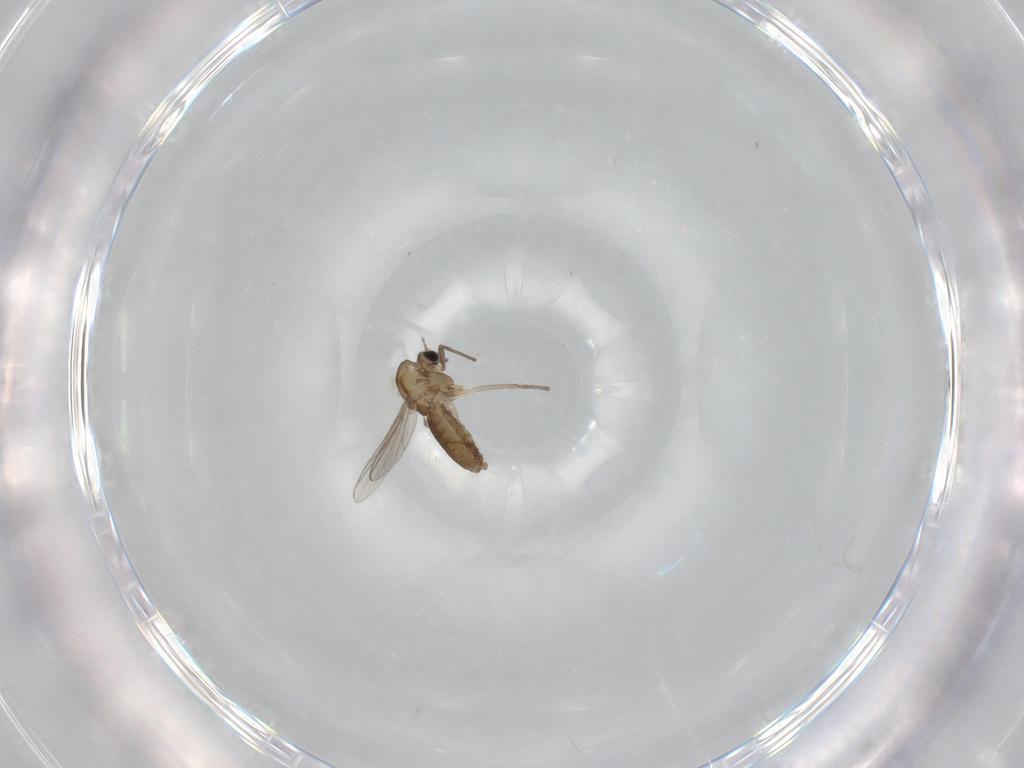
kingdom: Animalia
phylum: Arthropoda
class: Insecta
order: Diptera
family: Chironomidae
